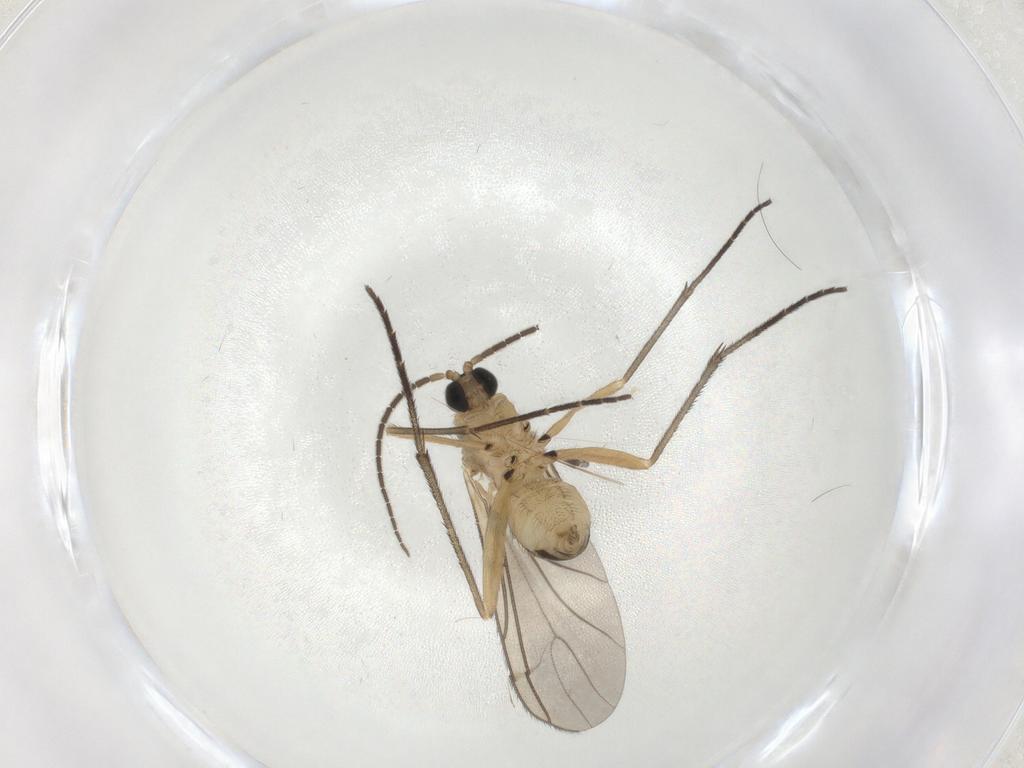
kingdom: Animalia
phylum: Arthropoda
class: Insecta
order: Diptera
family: Sciaridae
